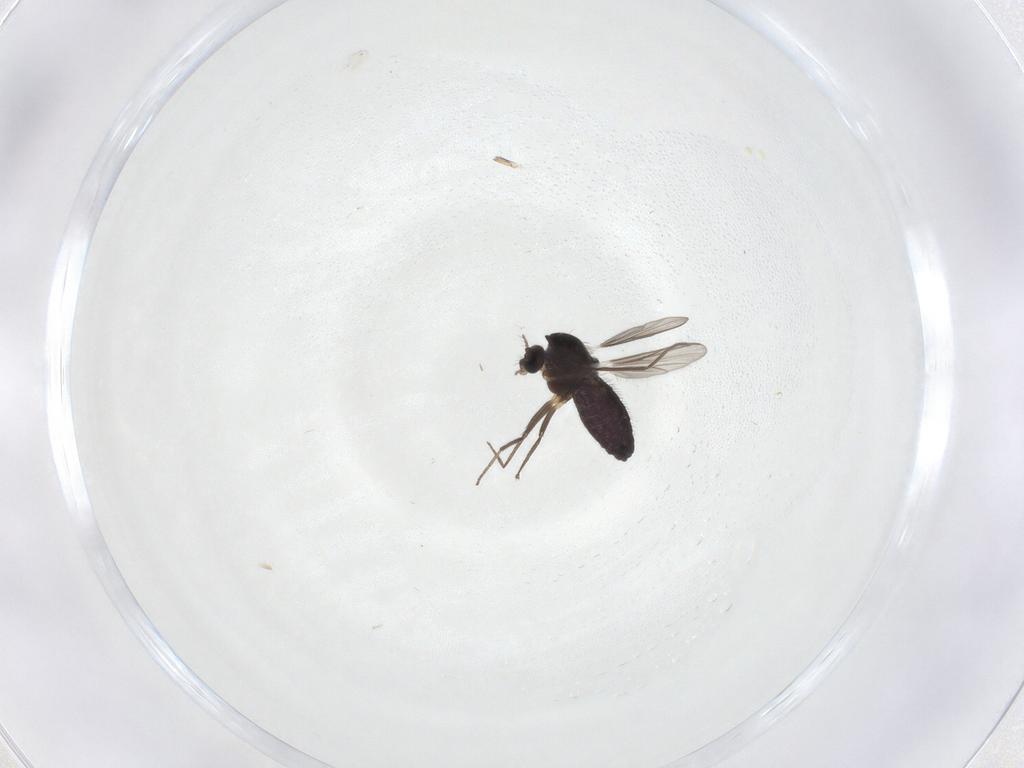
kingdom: Animalia
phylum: Arthropoda
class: Insecta
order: Diptera
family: Chironomidae
